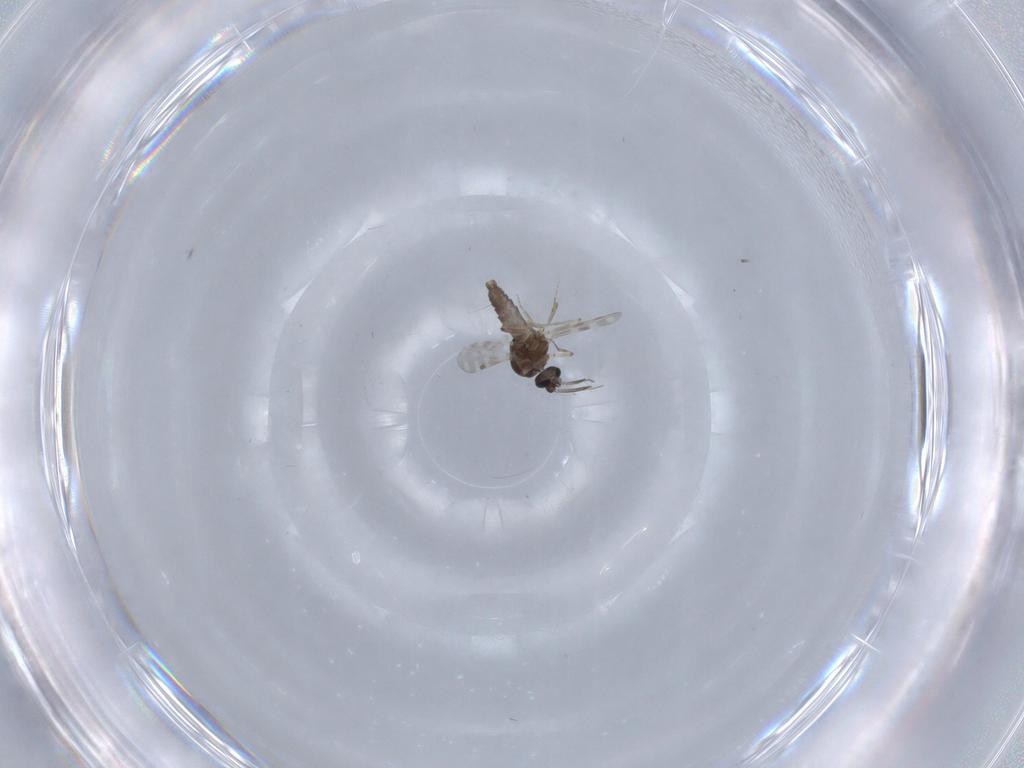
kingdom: Animalia
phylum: Arthropoda
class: Insecta
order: Diptera
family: Ceratopogonidae
